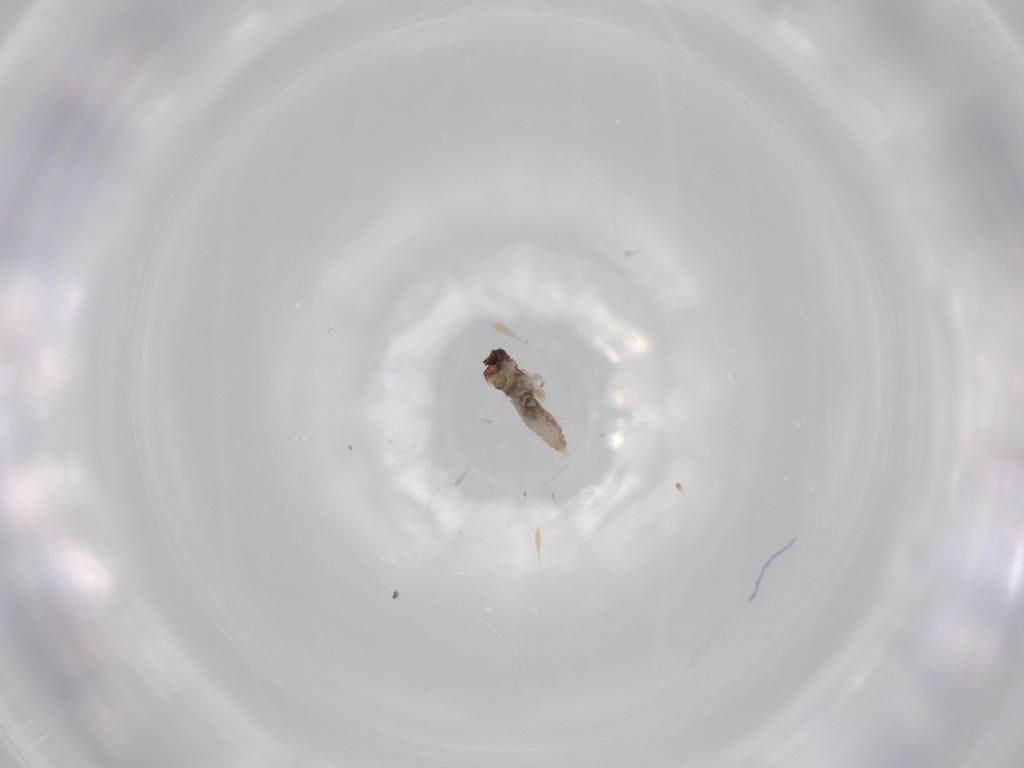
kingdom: Animalia
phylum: Arthropoda
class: Insecta
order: Diptera
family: Cecidomyiidae
